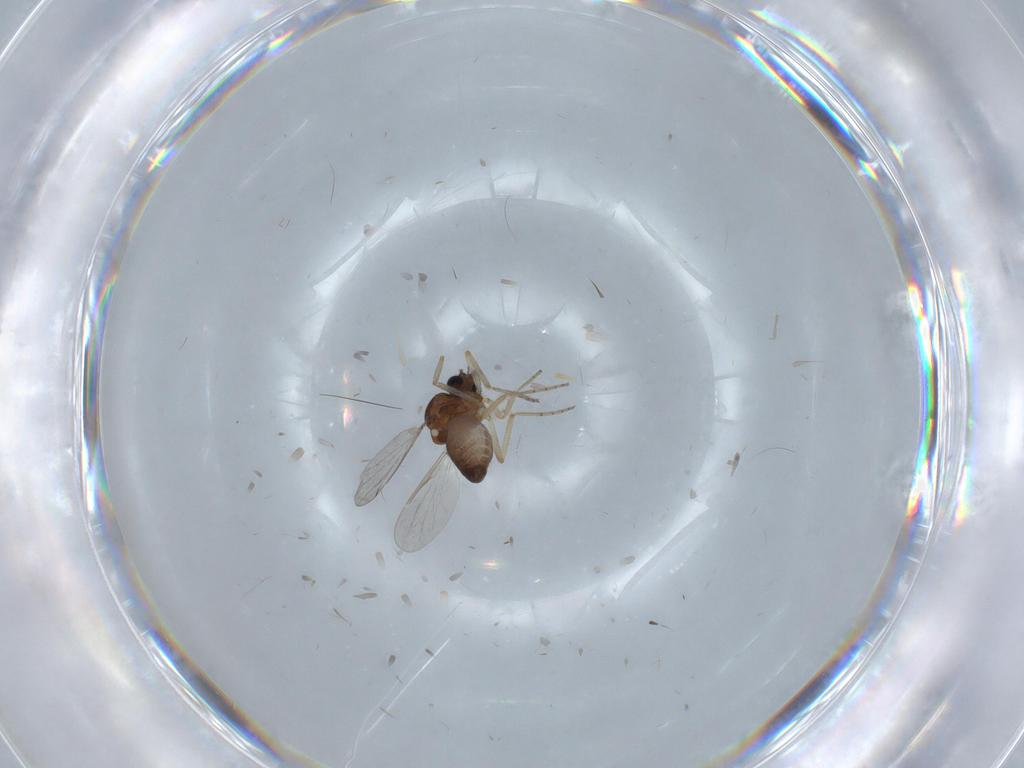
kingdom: Animalia
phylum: Arthropoda
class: Insecta
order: Diptera
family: Ceratopogonidae
